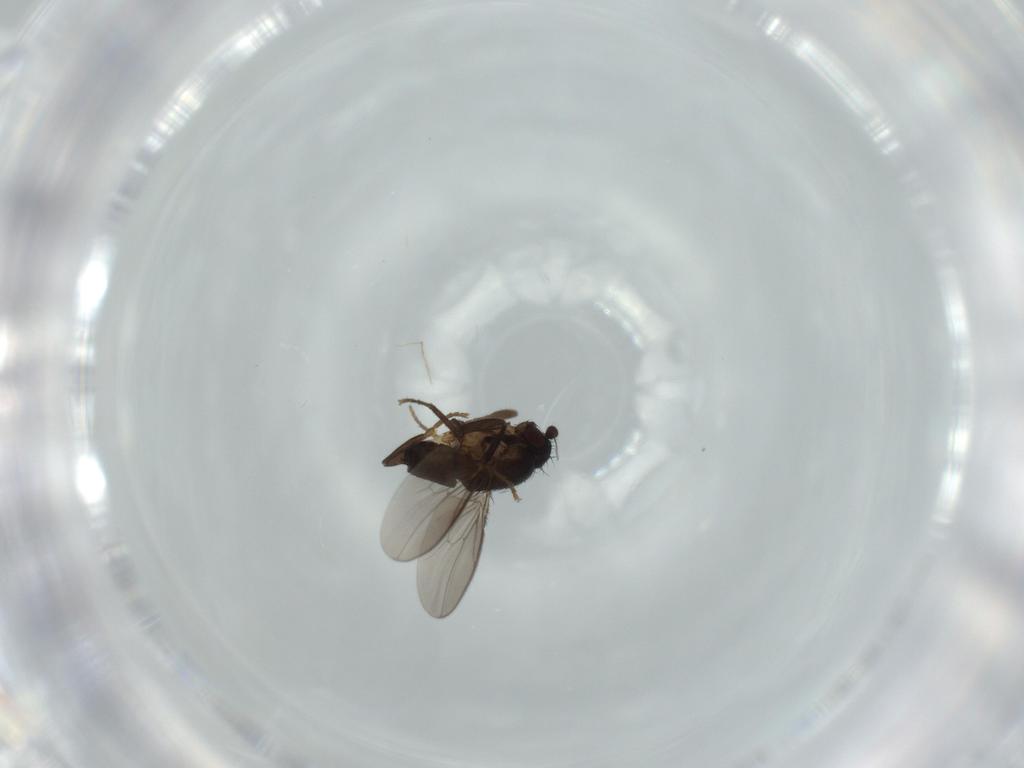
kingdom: Animalia
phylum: Arthropoda
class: Insecta
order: Diptera
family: Sphaeroceridae
